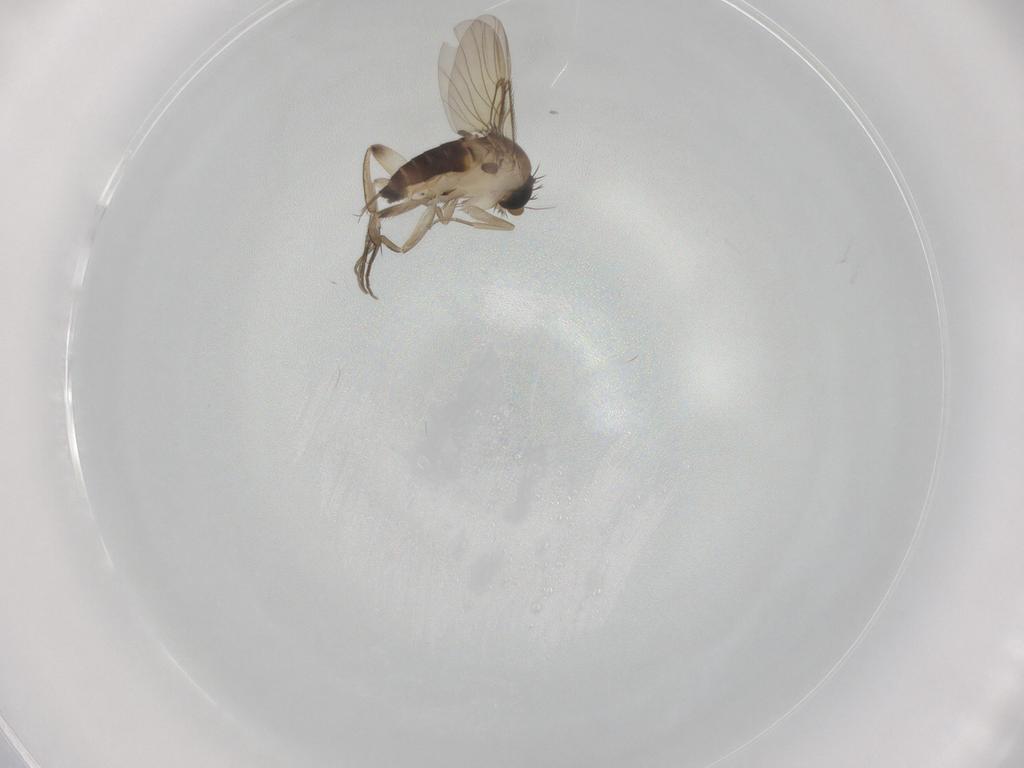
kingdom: Animalia
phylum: Arthropoda
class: Insecta
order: Diptera
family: Phoridae
